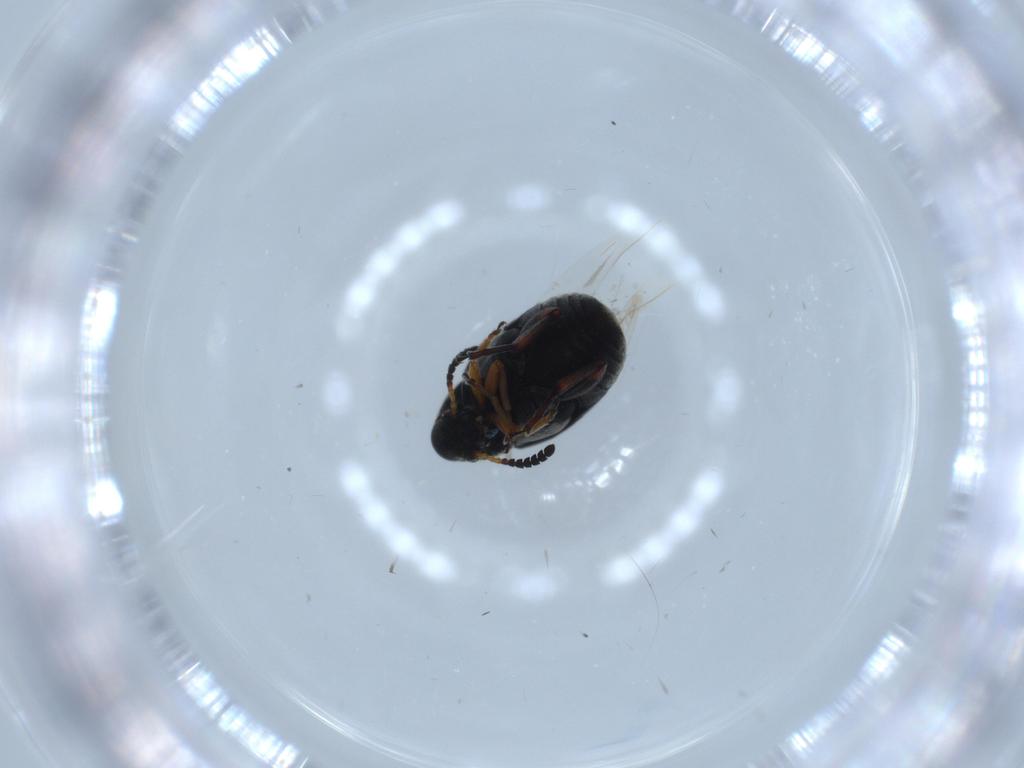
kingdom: Animalia
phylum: Arthropoda
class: Insecta
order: Coleoptera
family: Chrysomelidae
